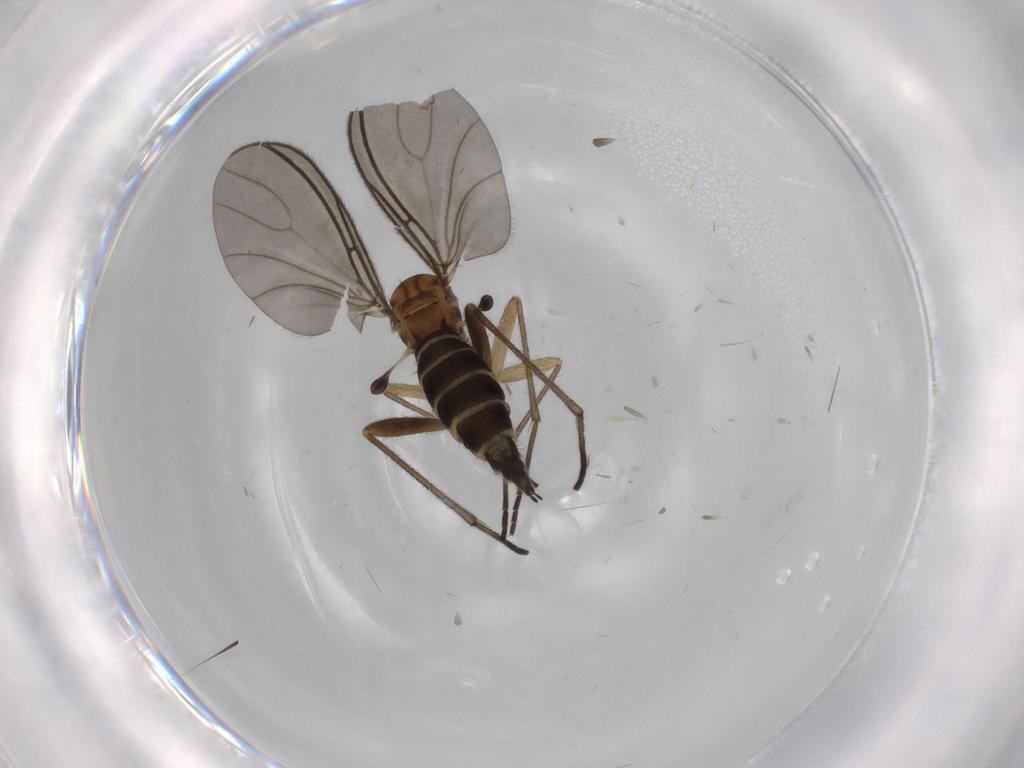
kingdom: Animalia
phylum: Arthropoda
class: Insecta
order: Diptera
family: Sciaridae
